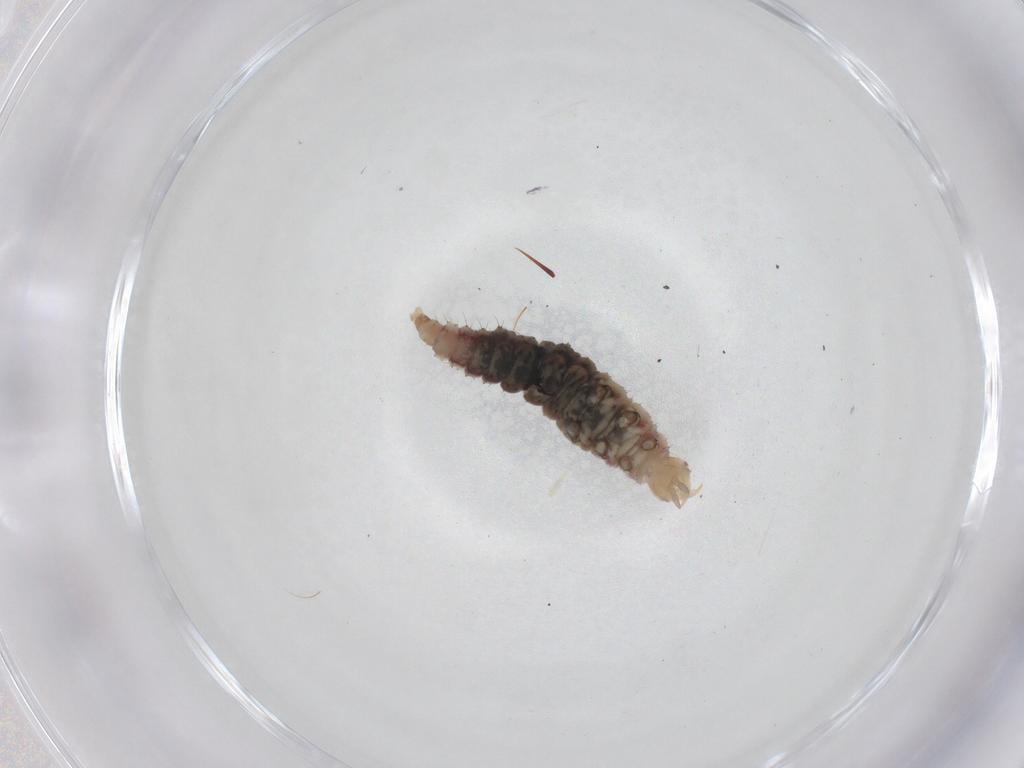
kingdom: Animalia
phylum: Arthropoda
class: Insecta
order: Neuroptera
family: Hemerobiidae
